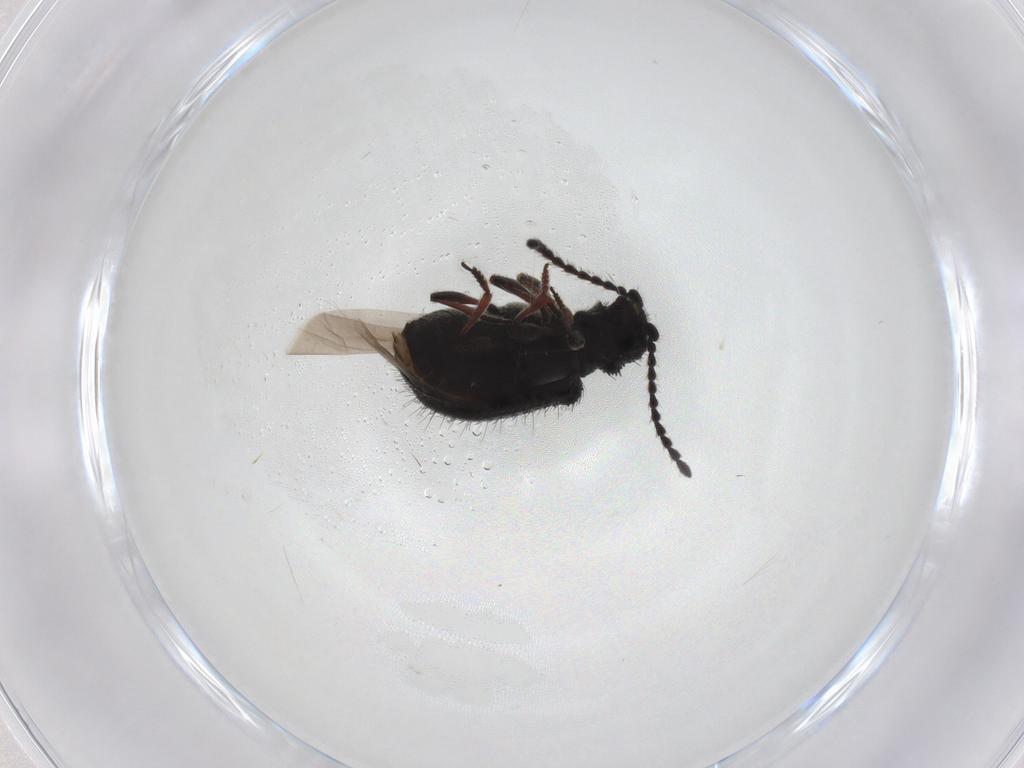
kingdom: Animalia
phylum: Arthropoda
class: Insecta
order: Coleoptera
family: Ptinidae
